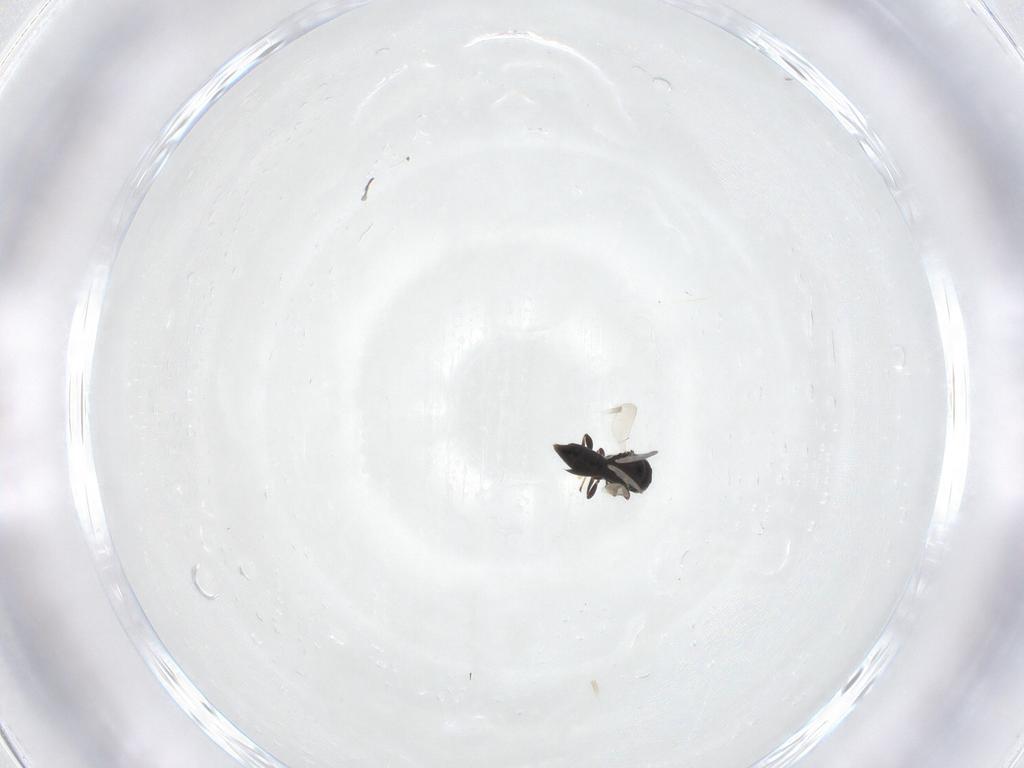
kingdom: Animalia
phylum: Arthropoda
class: Insecta
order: Hymenoptera
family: Platygastridae
